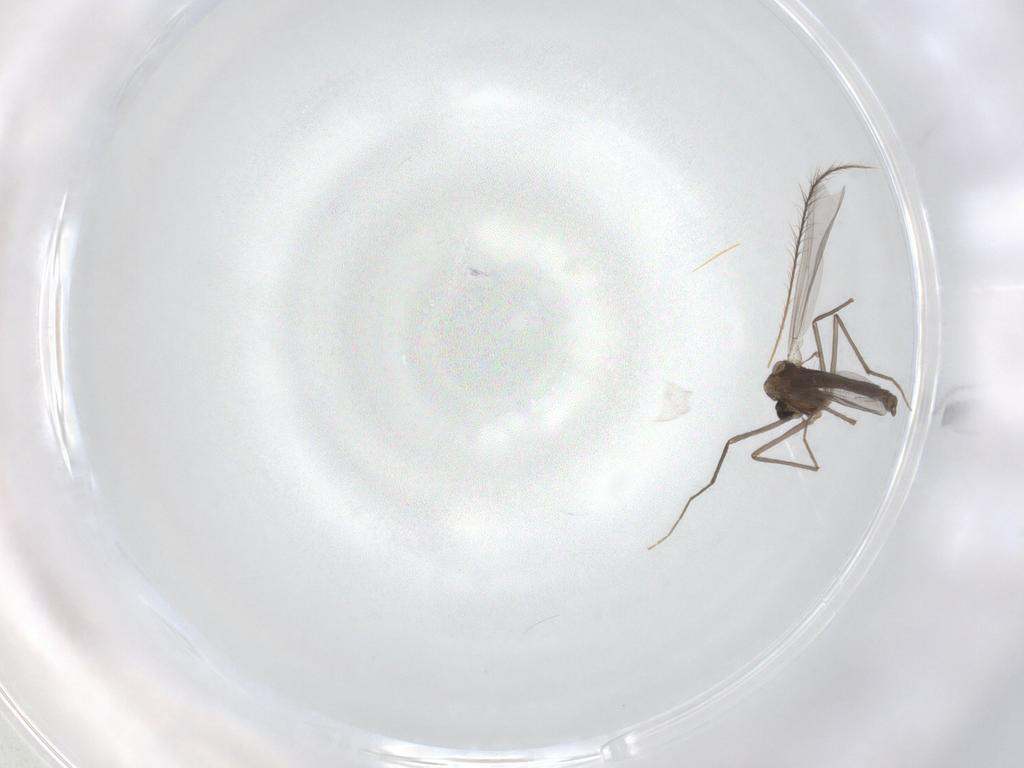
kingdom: Animalia
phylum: Arthropoda
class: Insecta
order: Diptera
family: Chironomidae
